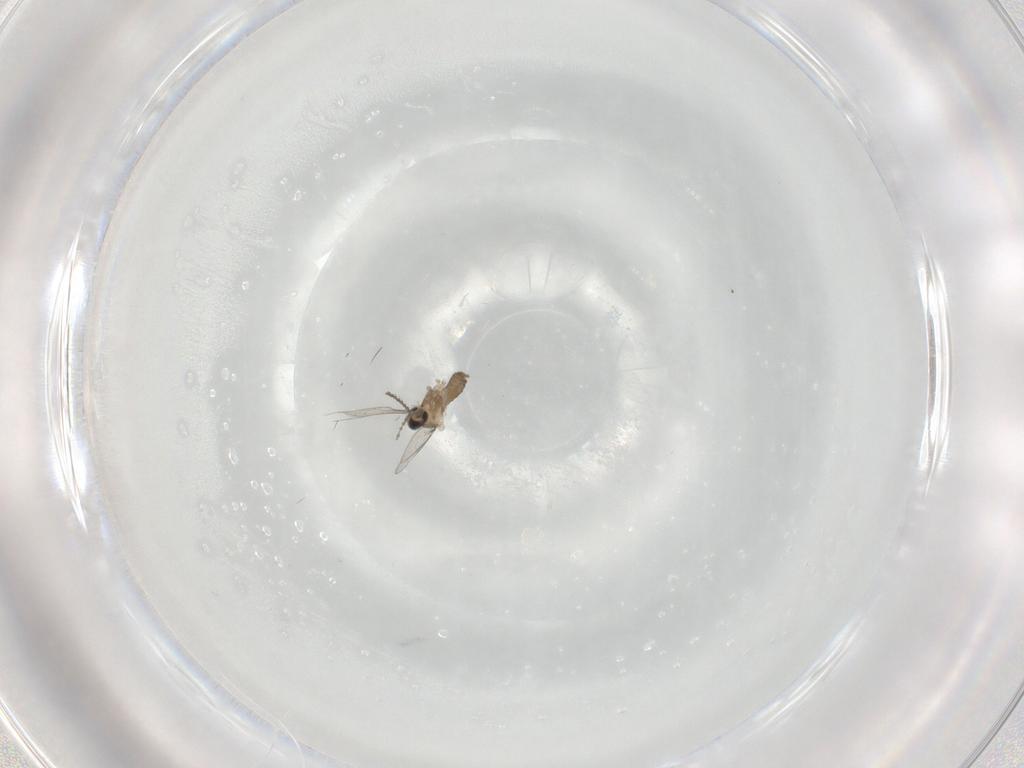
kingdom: Animalia
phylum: Arthropoda
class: Insecta
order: Diptera
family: Cecidomyiidae
